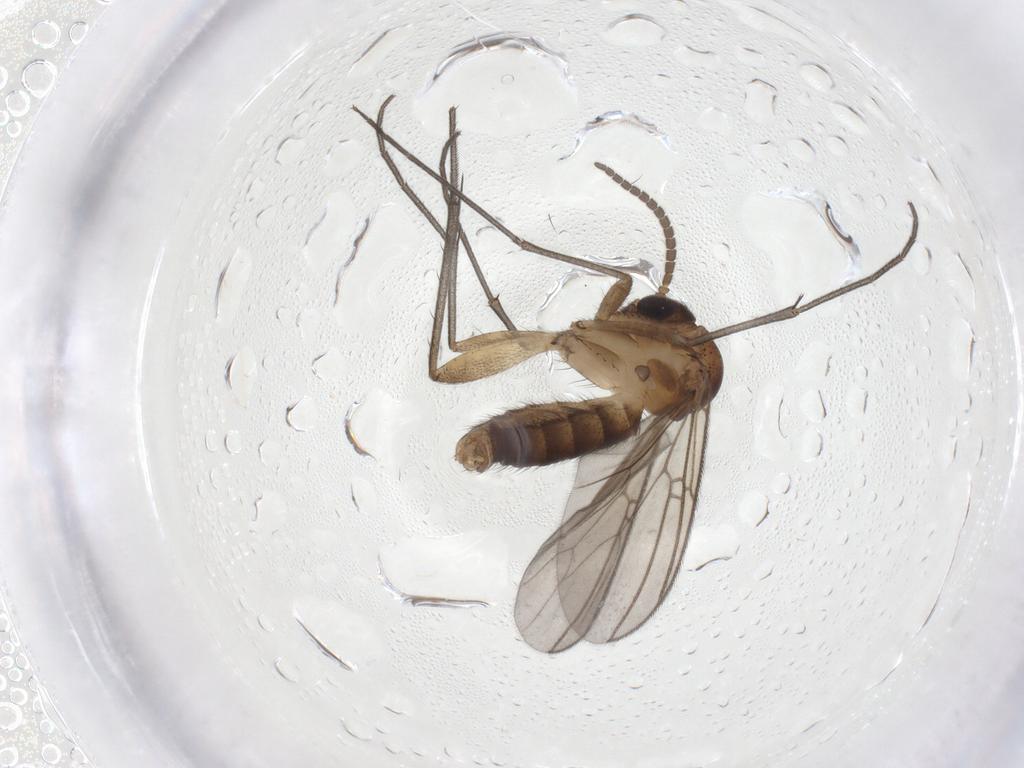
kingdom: Animalia
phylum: Arthropoda
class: Insecta
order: Diptera
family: Mycetophilidae
